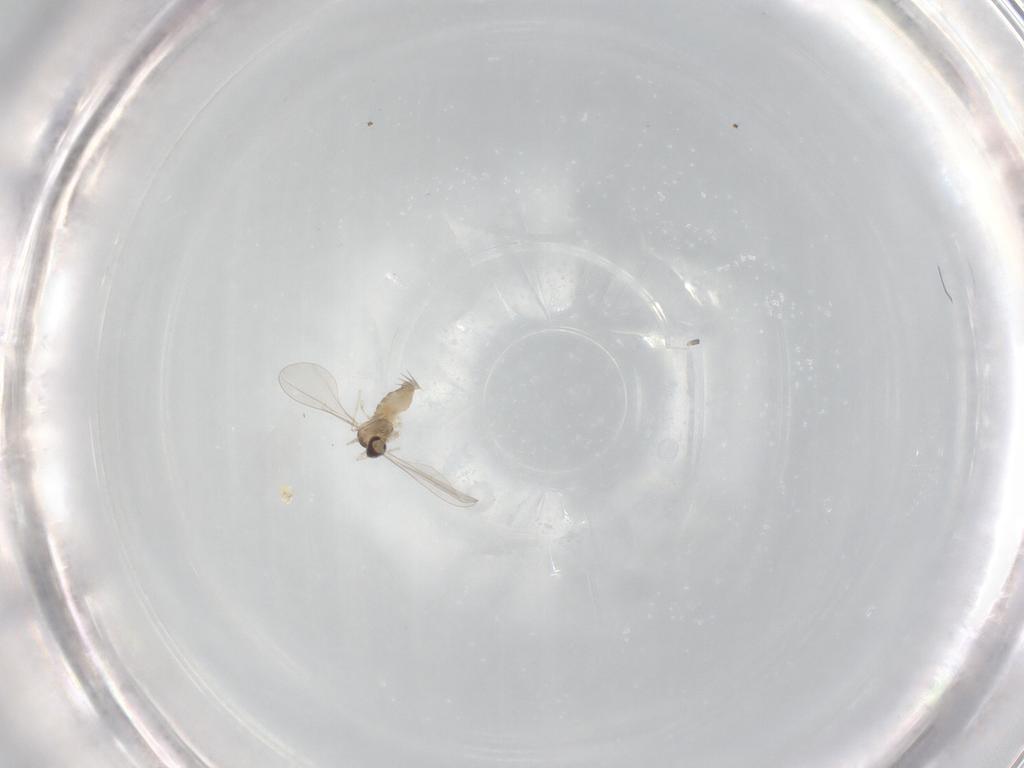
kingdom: Animalia
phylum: Arthropoda
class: Insecta
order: Diptera
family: Cecidomyiidae
